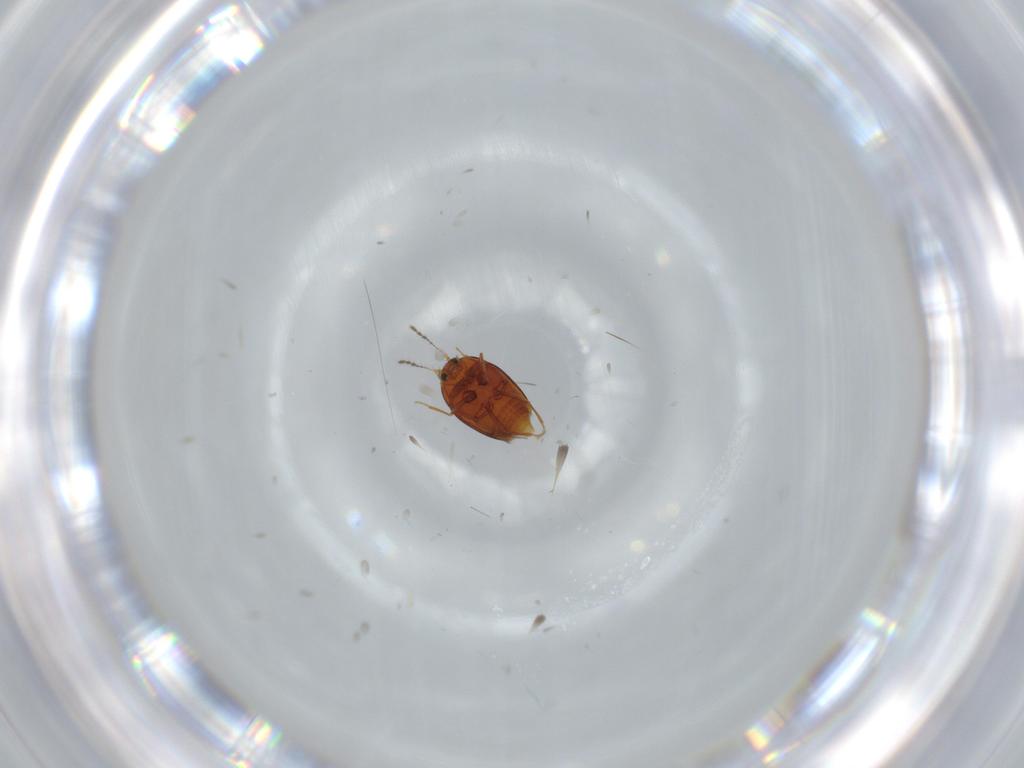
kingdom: Animalia
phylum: Arthropoda
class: Insecta
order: Coleoptera
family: Staphylinidae
